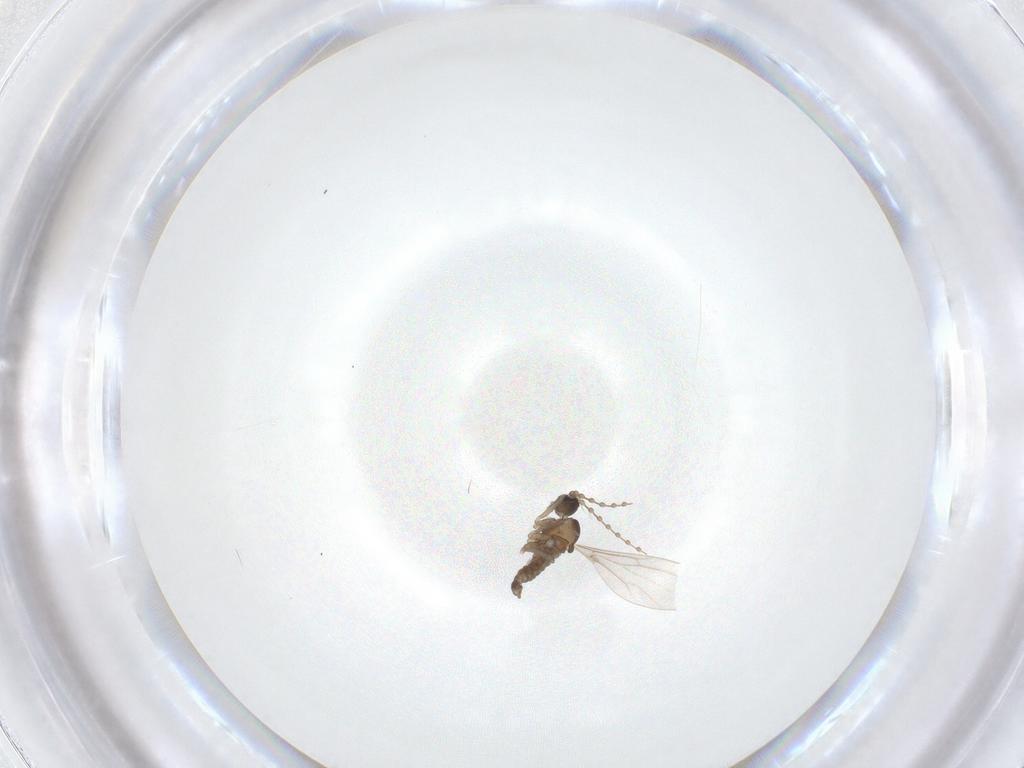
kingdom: Animalia
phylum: Arthropoda
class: Insecta
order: Diptera
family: Cecidomyiidae
